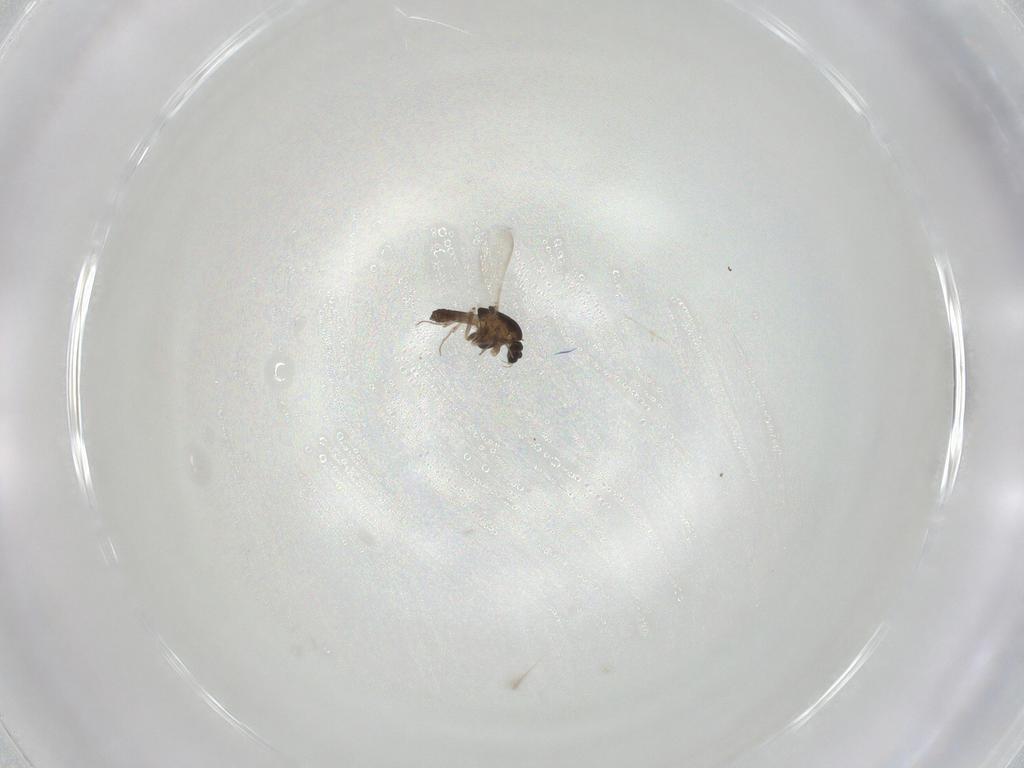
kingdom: Animalia
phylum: Arthropoda
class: Insecta
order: Diptera
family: Chironomidae
